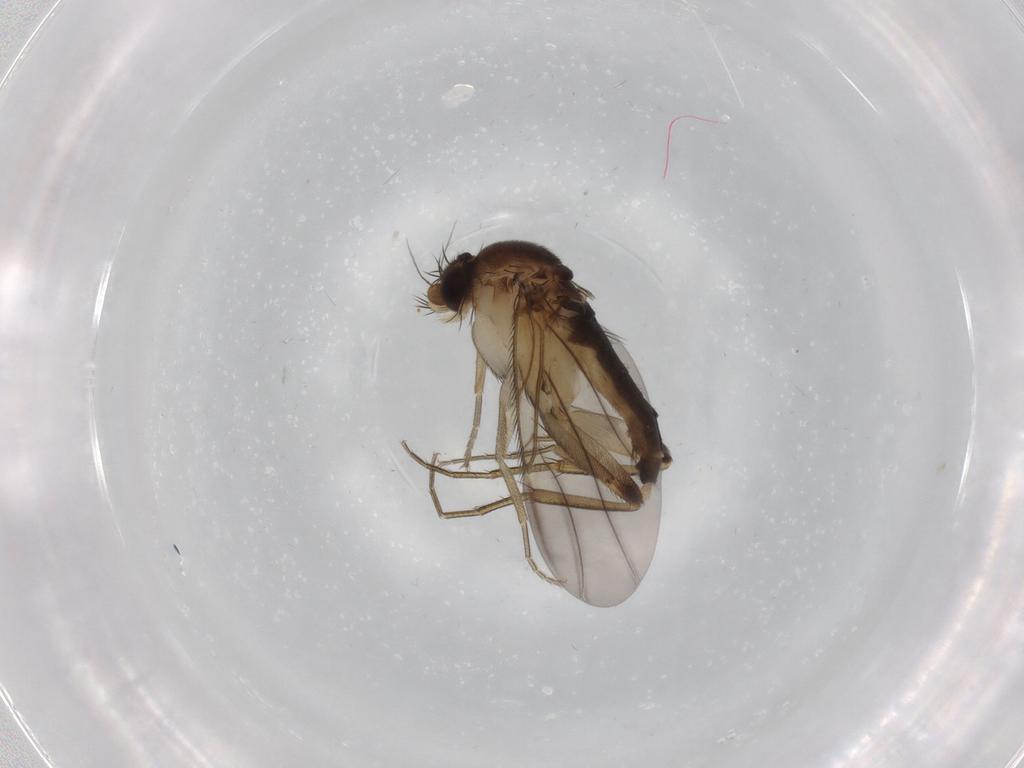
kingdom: Animalia
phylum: Arthropoda
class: Insecta
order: Diptera
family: Phoridae
